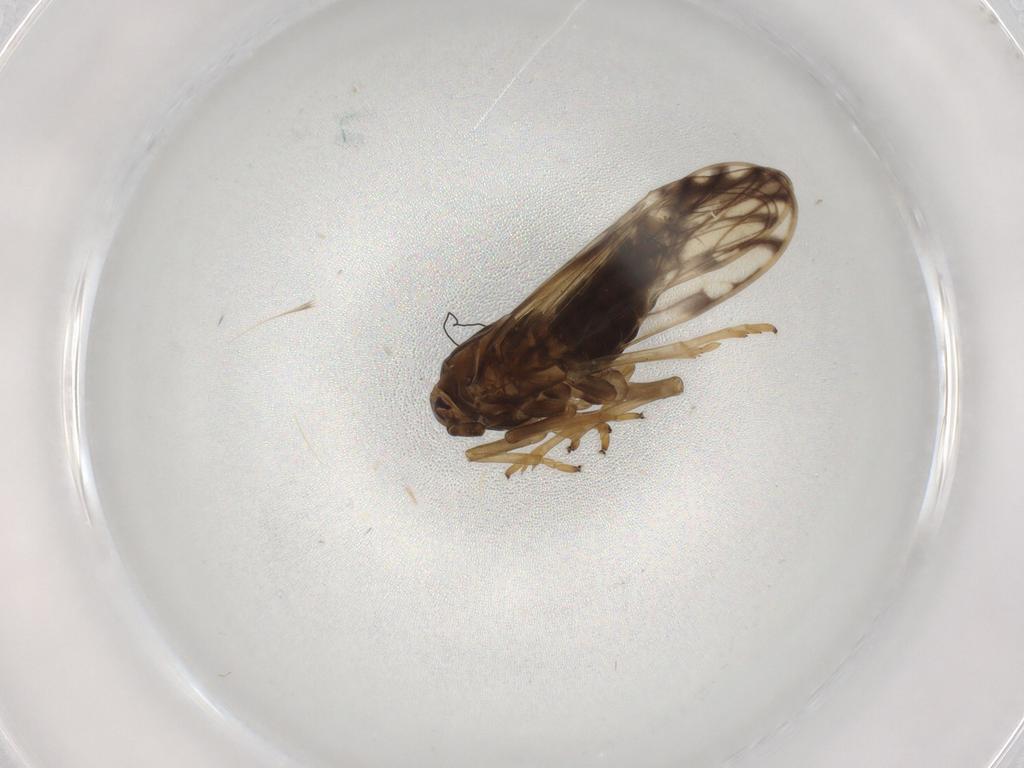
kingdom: Animalia
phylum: Arthropoda
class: Insecta
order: Hemiptera
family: Delphacidae
